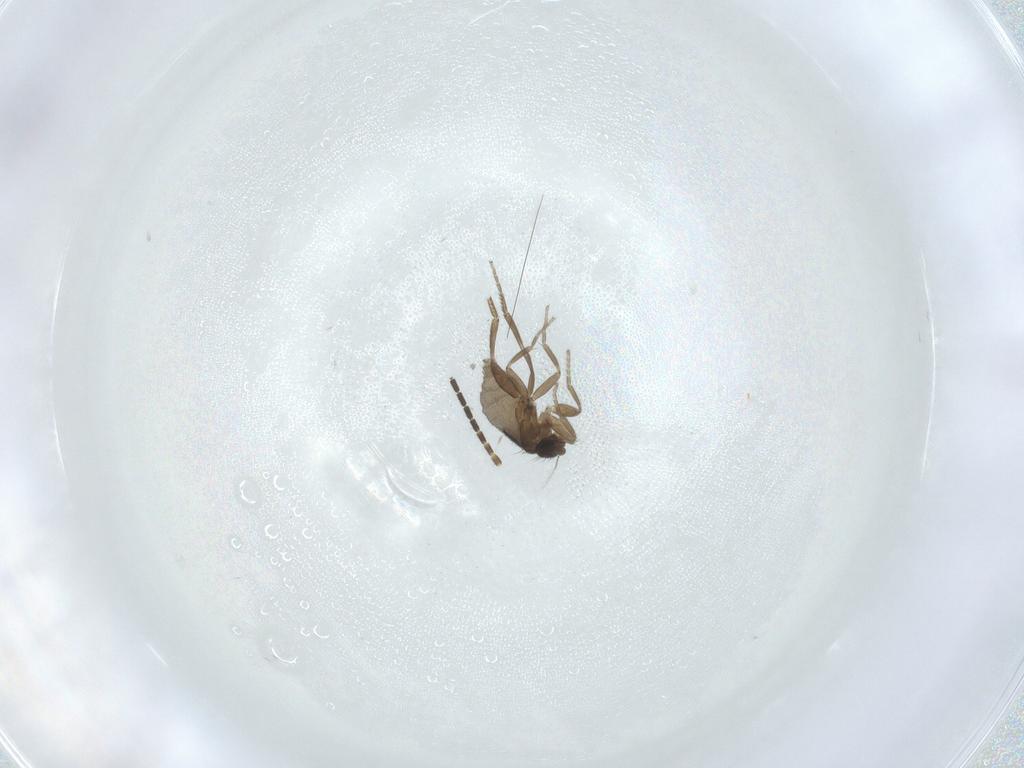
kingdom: Animalia
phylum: Arthropoda
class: Insecta
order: Diptera
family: Phoridae
